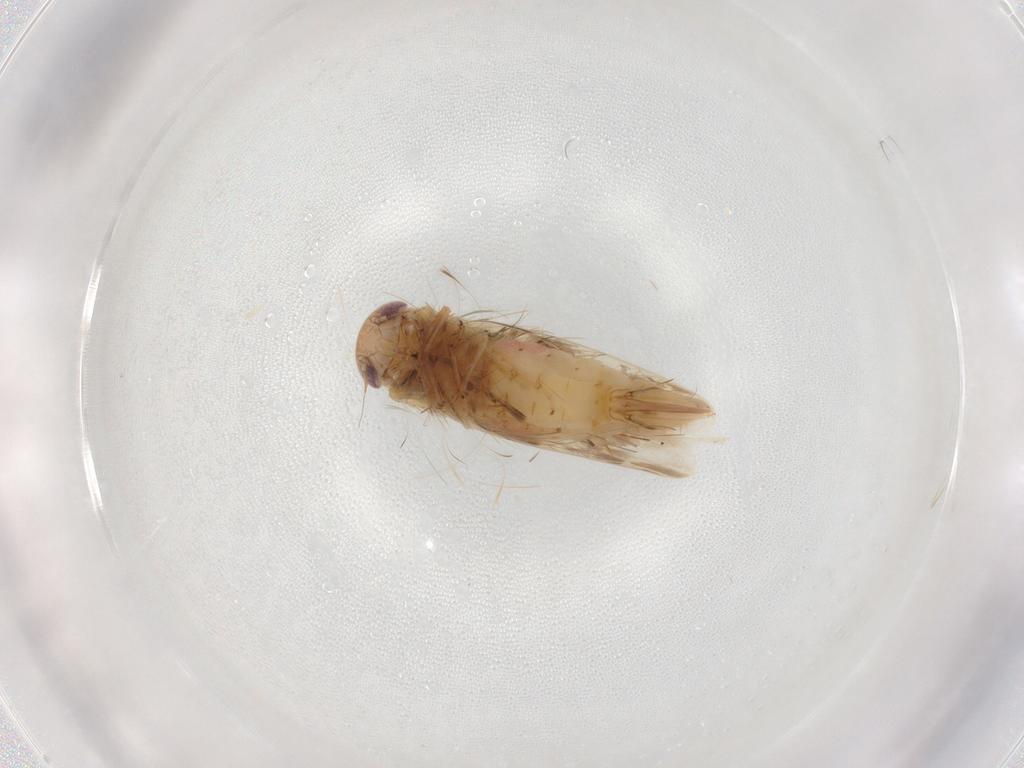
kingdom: Animalia
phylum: Arthropoda
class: Insecta
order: Hemiptera
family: Cicadellidae
